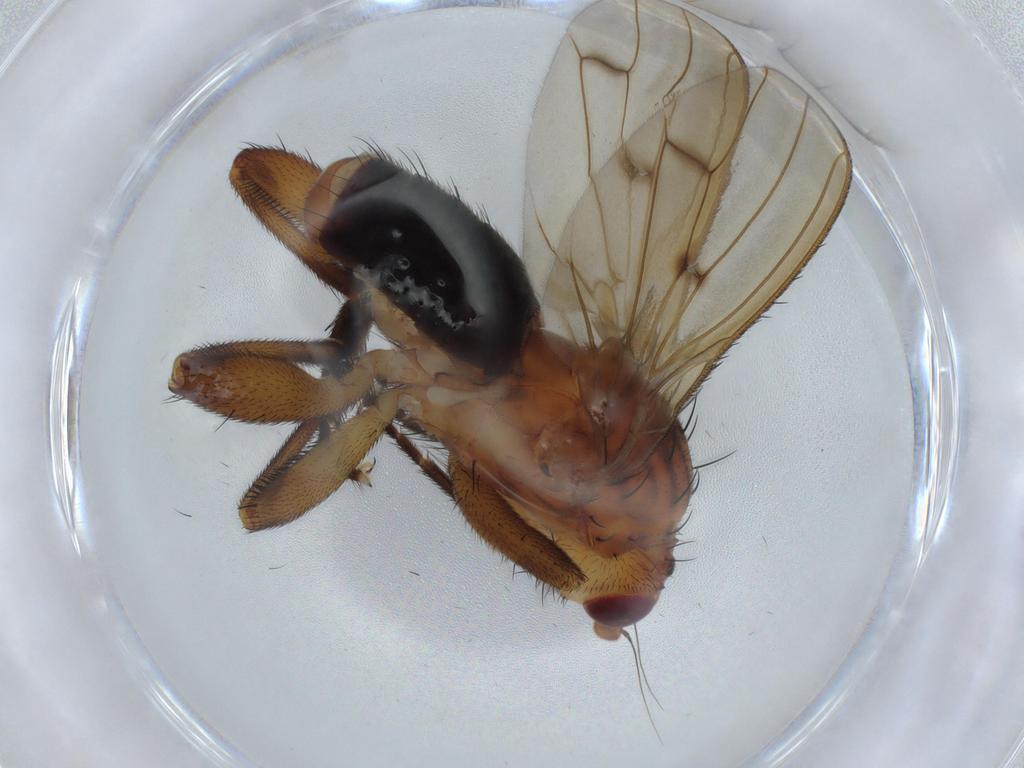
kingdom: Animalia
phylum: Arthropoda
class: Insecta
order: Diptera
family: Heleomyzidae
